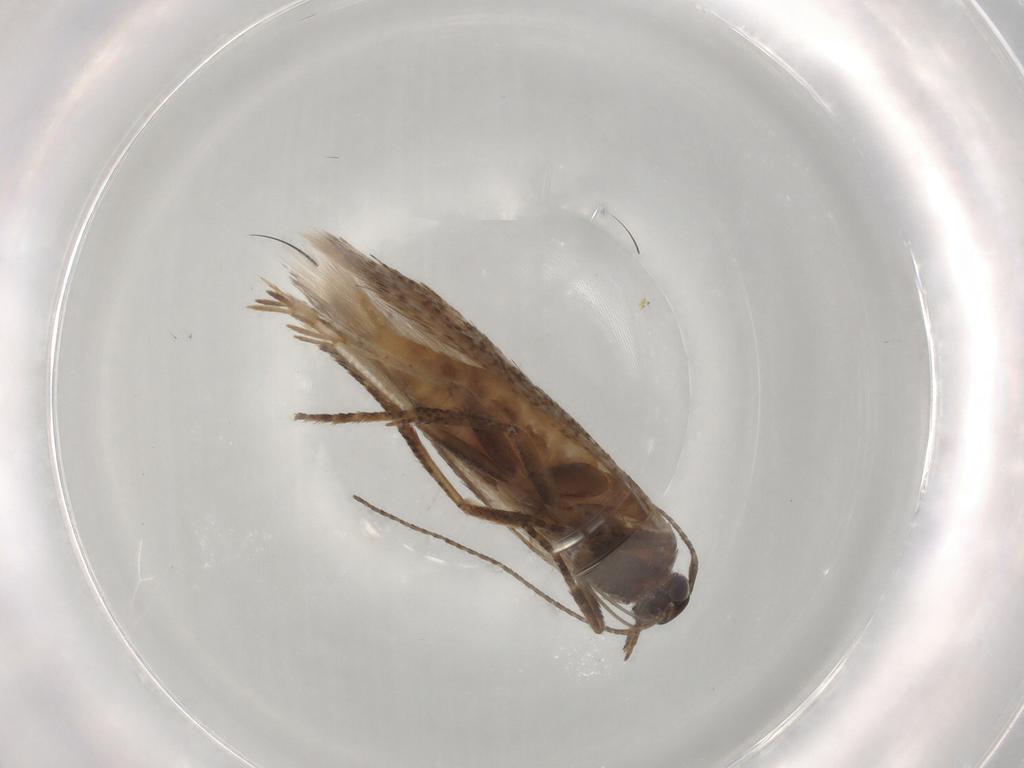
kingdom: Animalia
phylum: Arthropoda
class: Insecta
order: Lepidoptera
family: Gelechiidae
